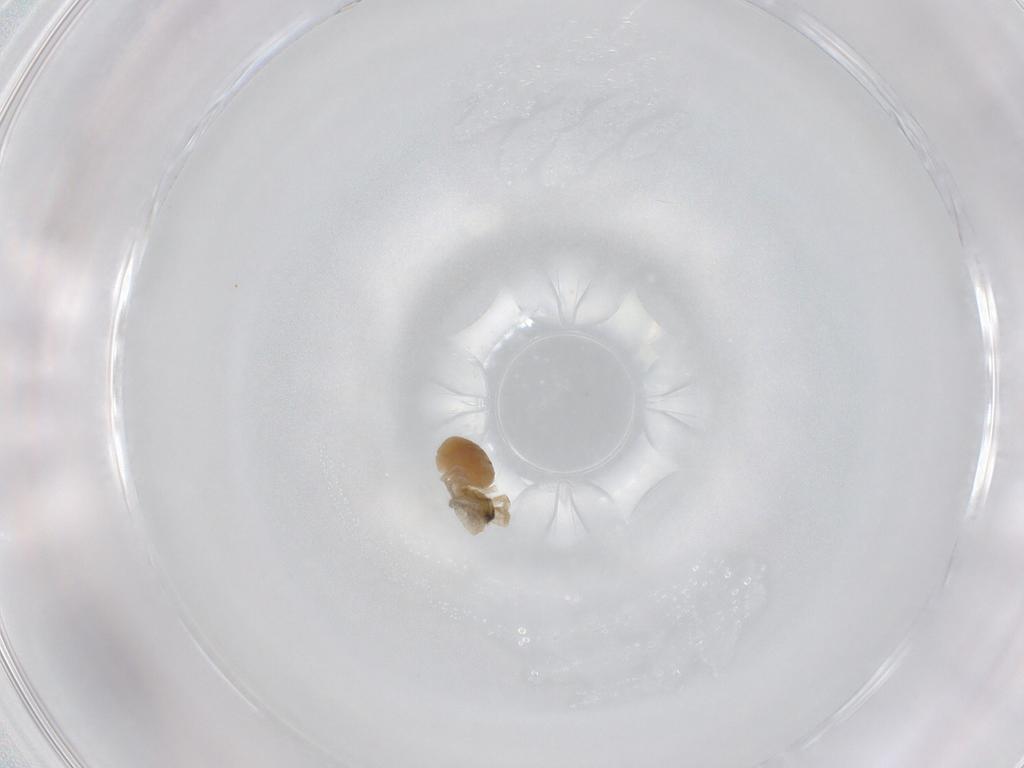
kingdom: Animalia
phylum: Arthropoda
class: Arachnida
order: Araneae
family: Linyphiidae
